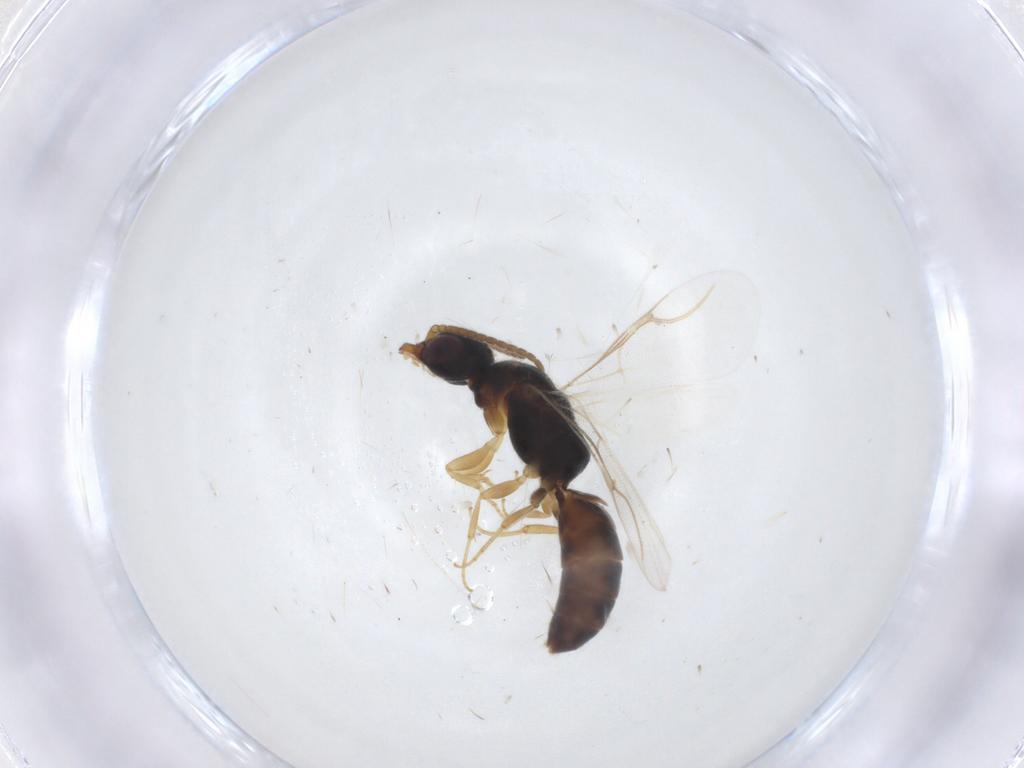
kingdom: Animalia
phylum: Arthropoda
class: Insecta
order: Hymenoptera
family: Bethylidae
